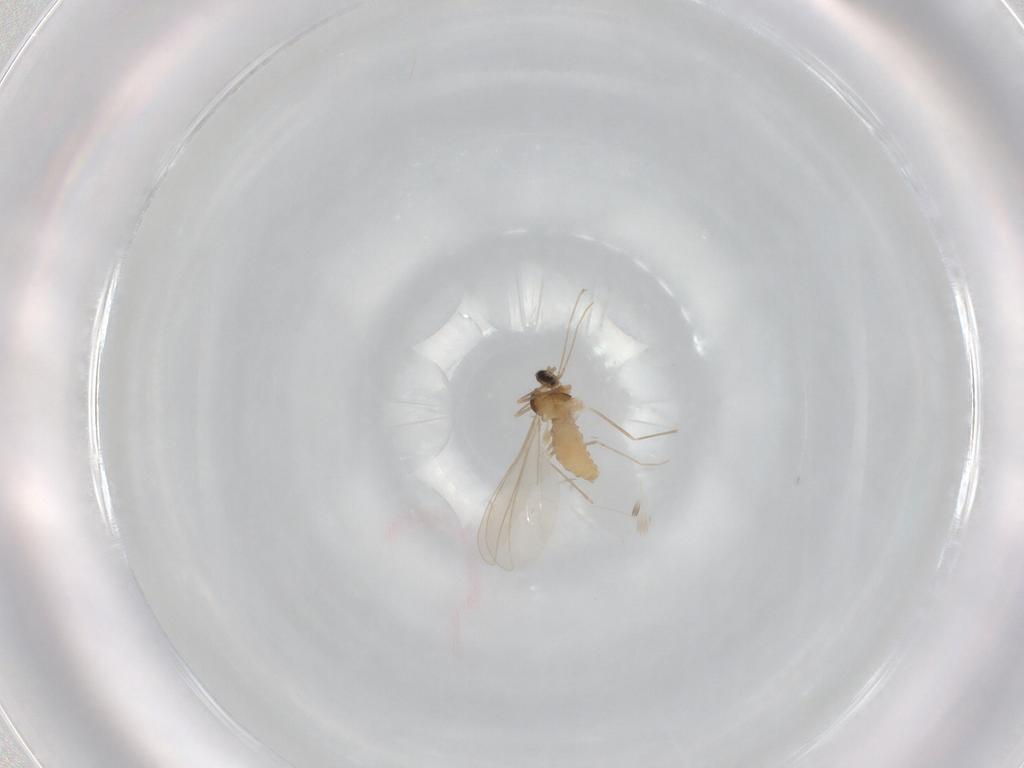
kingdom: Animalia
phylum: Arthropoda
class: Insecta
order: Diptera
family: Cecidomyiidae
